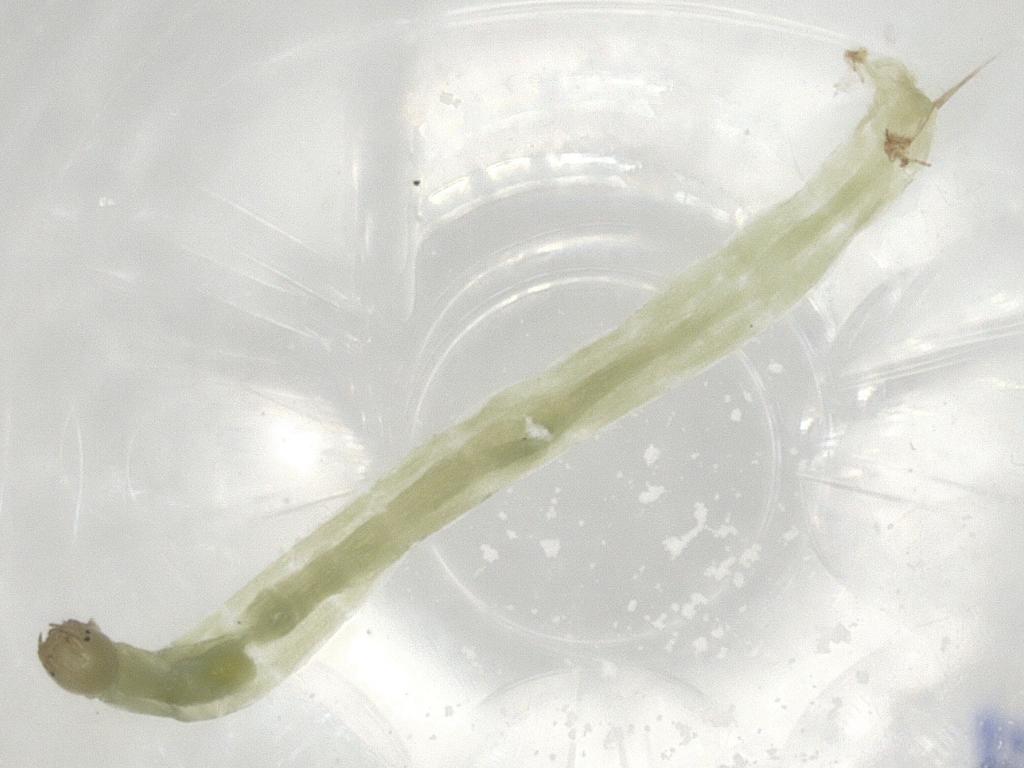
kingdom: Animalia
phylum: Arthropoda
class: Insecta
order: Diptera
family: Chironomidae
